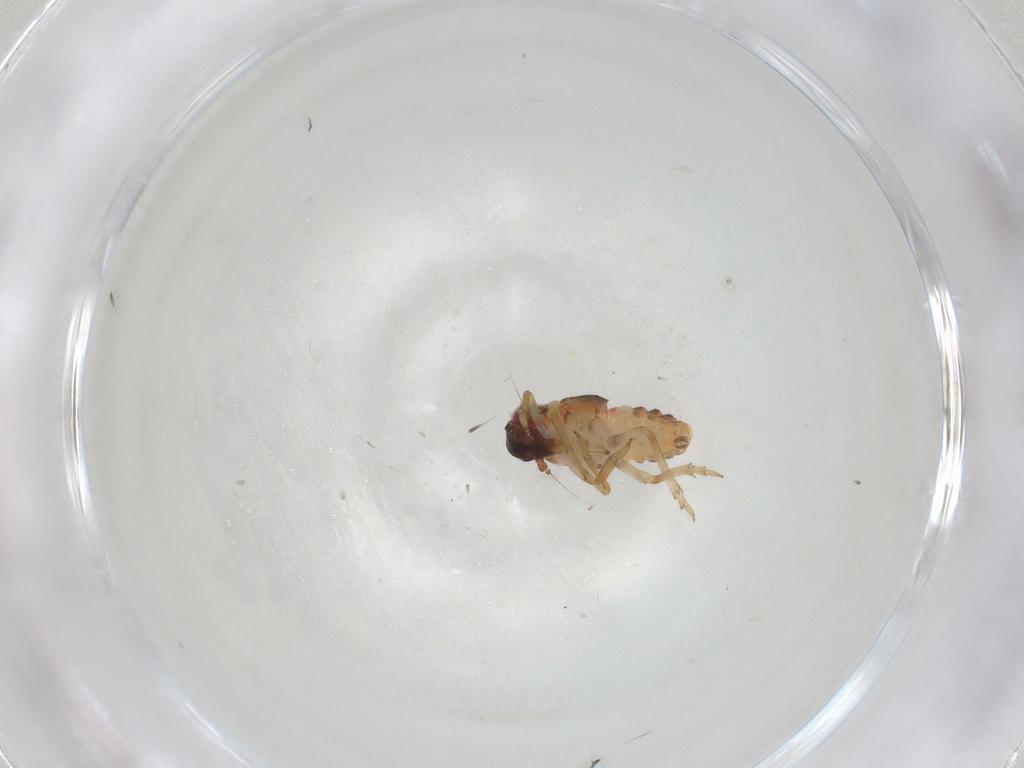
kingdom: Animalia
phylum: Arthropoda
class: Insecta
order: Hemiptera
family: Issidae
